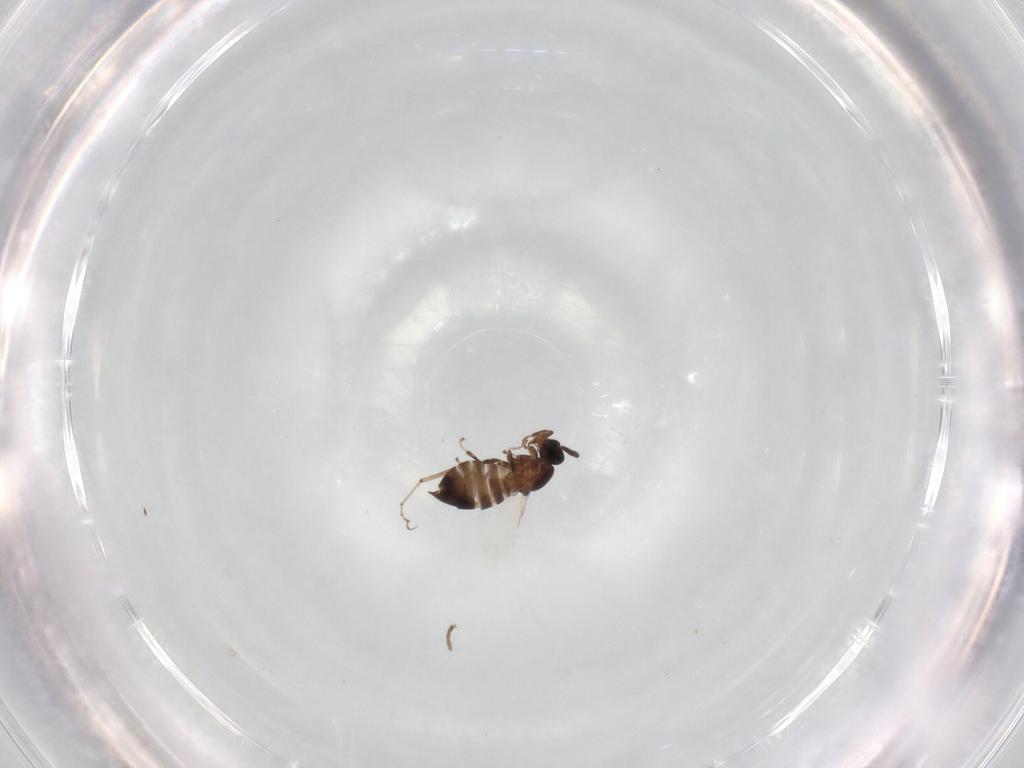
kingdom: Animalia
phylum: Arthropoda
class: Insecta
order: Diptera
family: Scatopsidae
